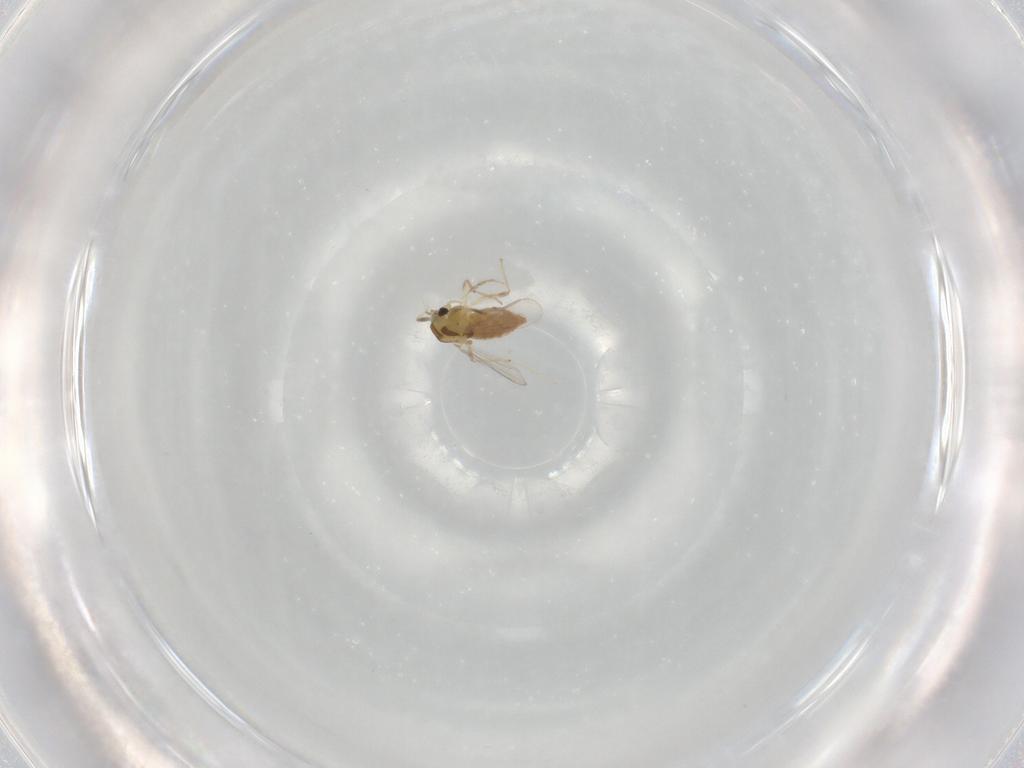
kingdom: Animalia
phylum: Arthropoda
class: Insecta
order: Diptera
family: Chironomidae
